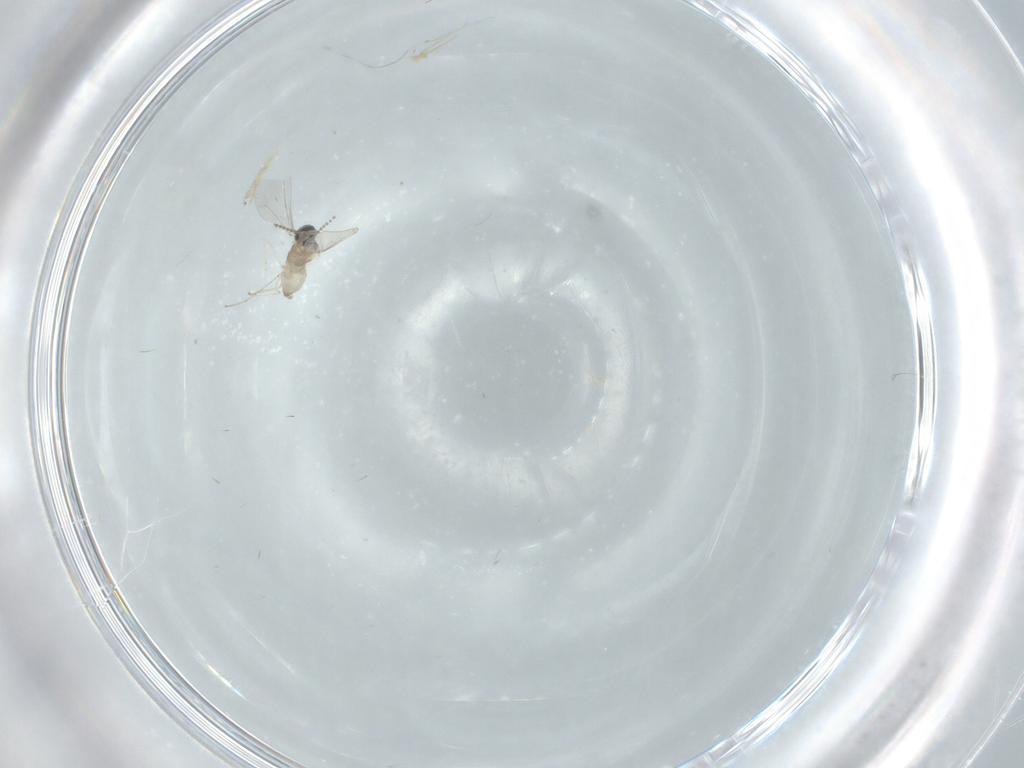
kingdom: Animalia
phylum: Arthropoda
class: Insecta
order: Diptera
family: Cecidomyiidae
